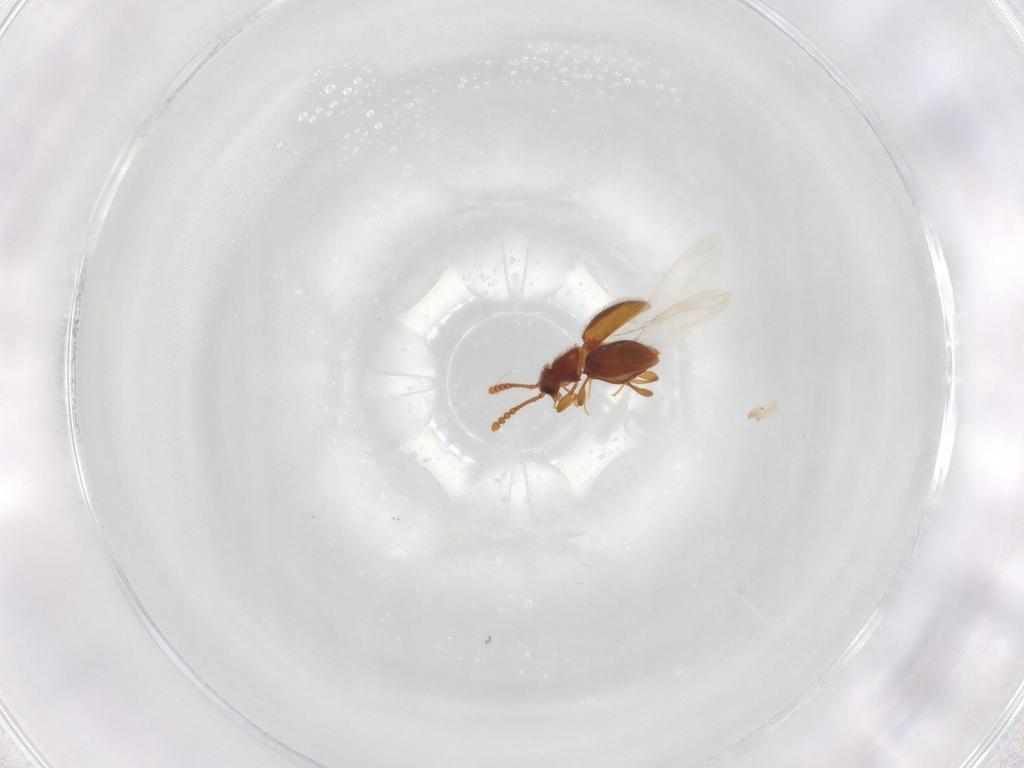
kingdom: Animalia
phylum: Arthropoda
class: Insecta
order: Coleoptera
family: Staphylinidae
